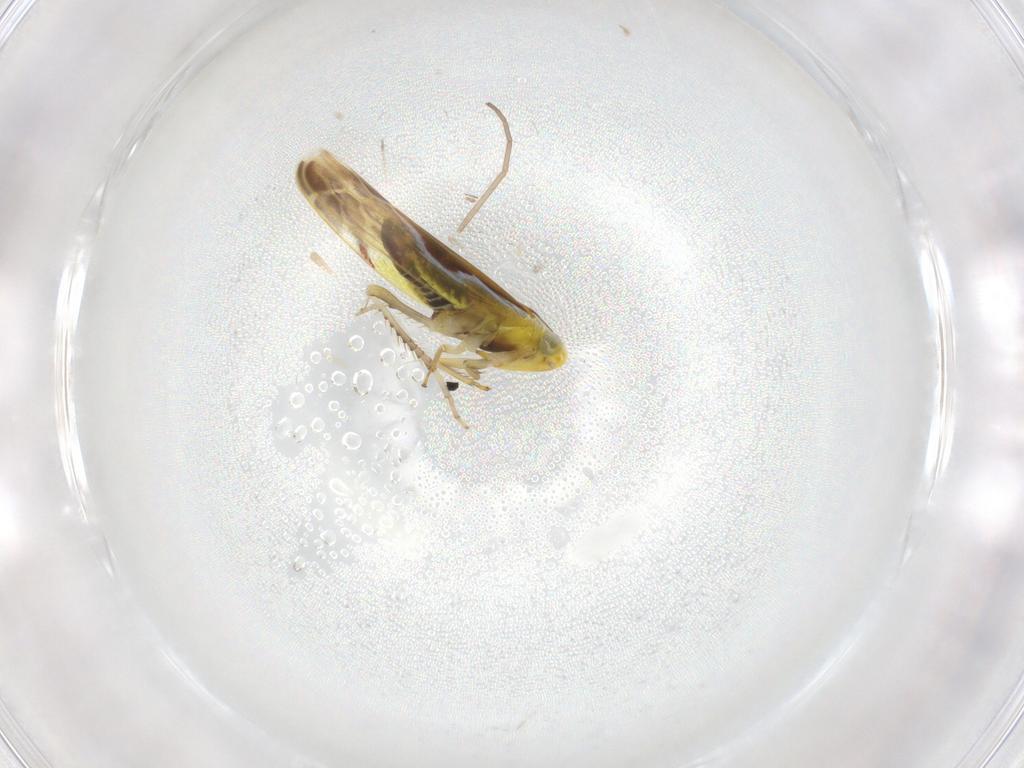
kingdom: Animalia
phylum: Arthropoda
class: Insecta
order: Hemiptera
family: Cicadellidae
